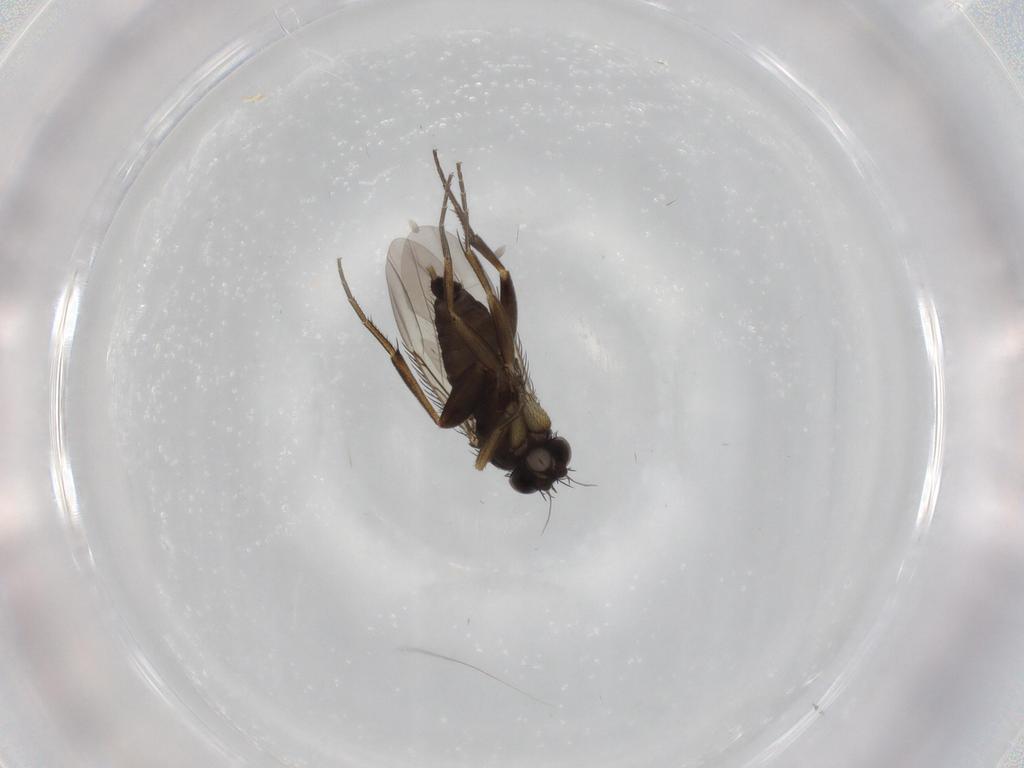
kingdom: Animalia
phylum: Arthropoda
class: Insecta
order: Diptera
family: Phoridae
